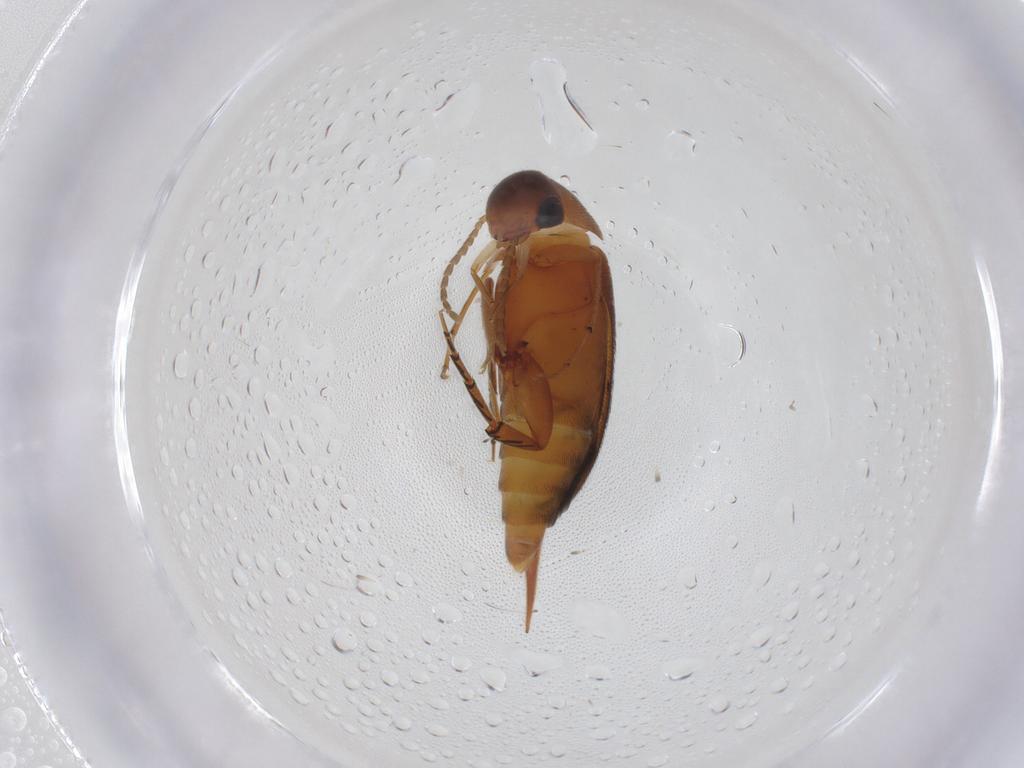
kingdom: Animalia
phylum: Arthropoda
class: Insecta
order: Coleoptera
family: Mordellidae
